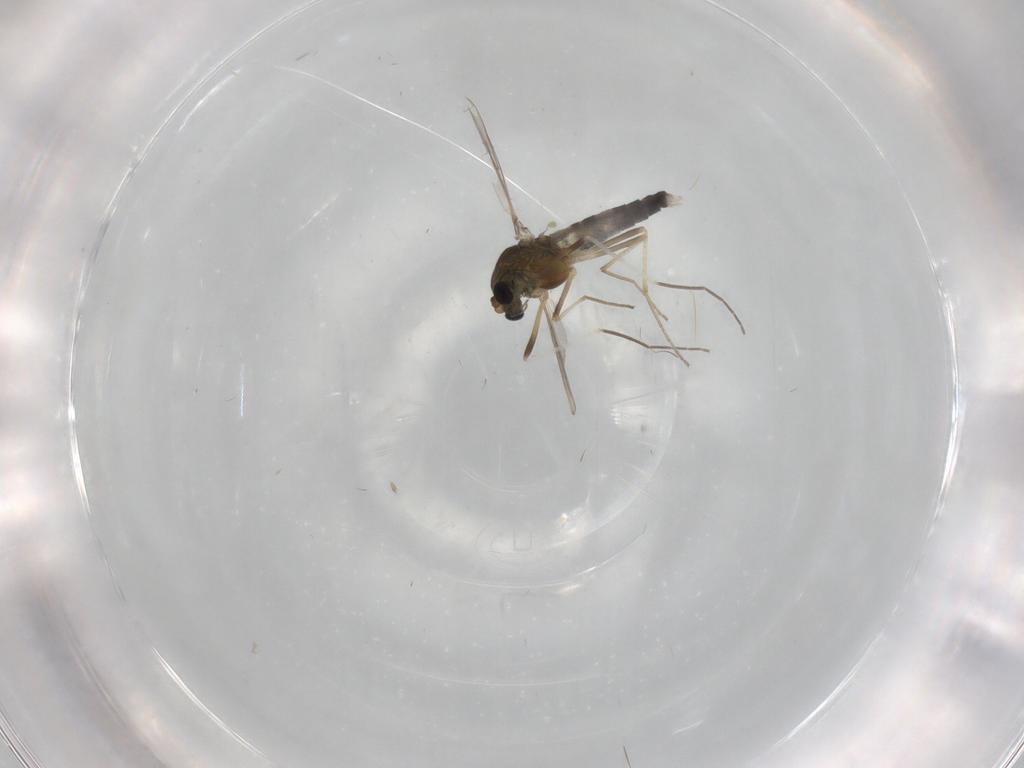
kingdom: Animalia
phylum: Arthropoda
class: Insecta
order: Diptera
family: Chironomidae
